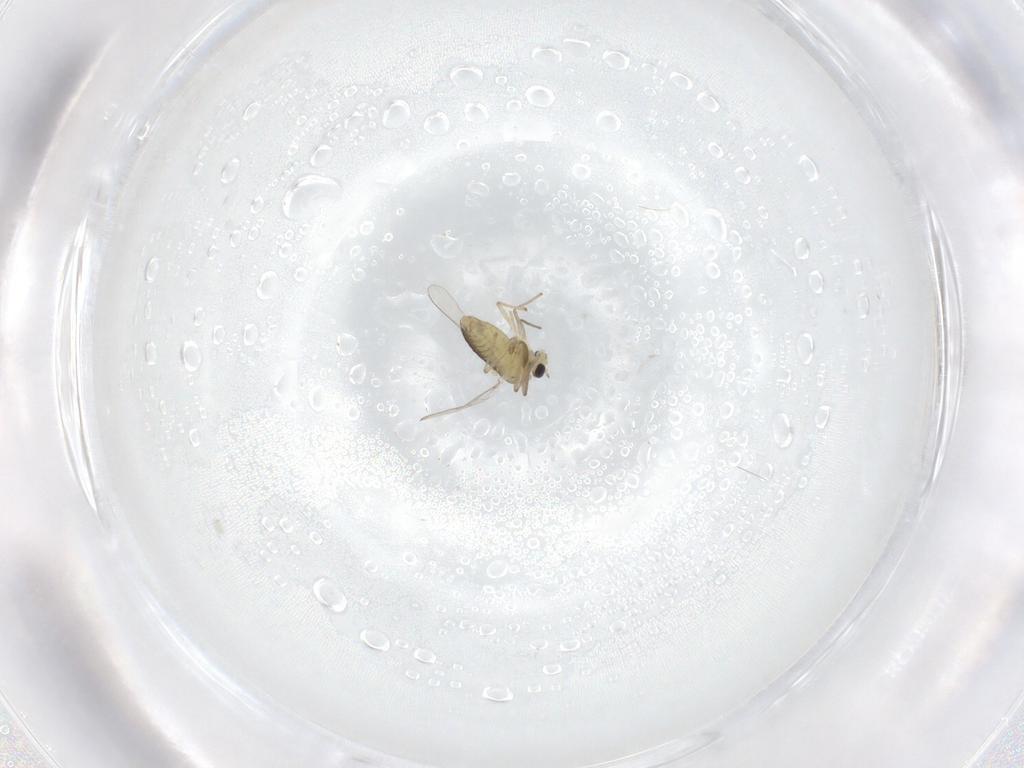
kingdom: Animalia
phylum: Arthropoda
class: Insecta
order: Diptera
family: Chironomidae
